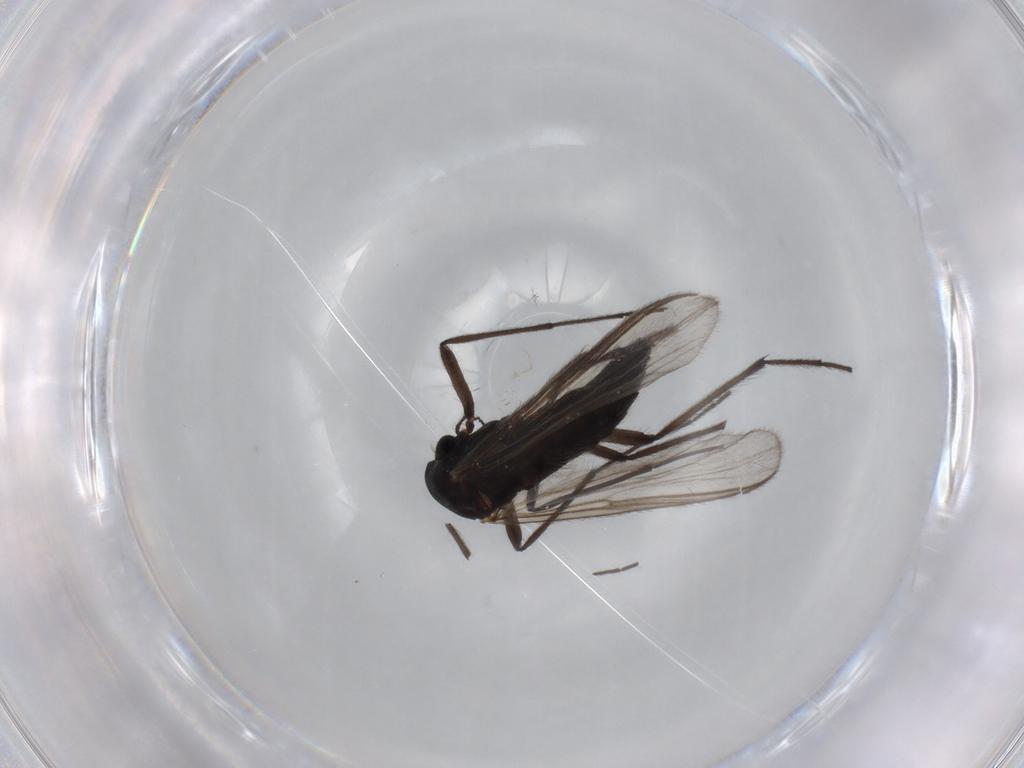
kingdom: Animalia
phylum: Arthropoda
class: Insecta
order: Diptera
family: Chironomidae
